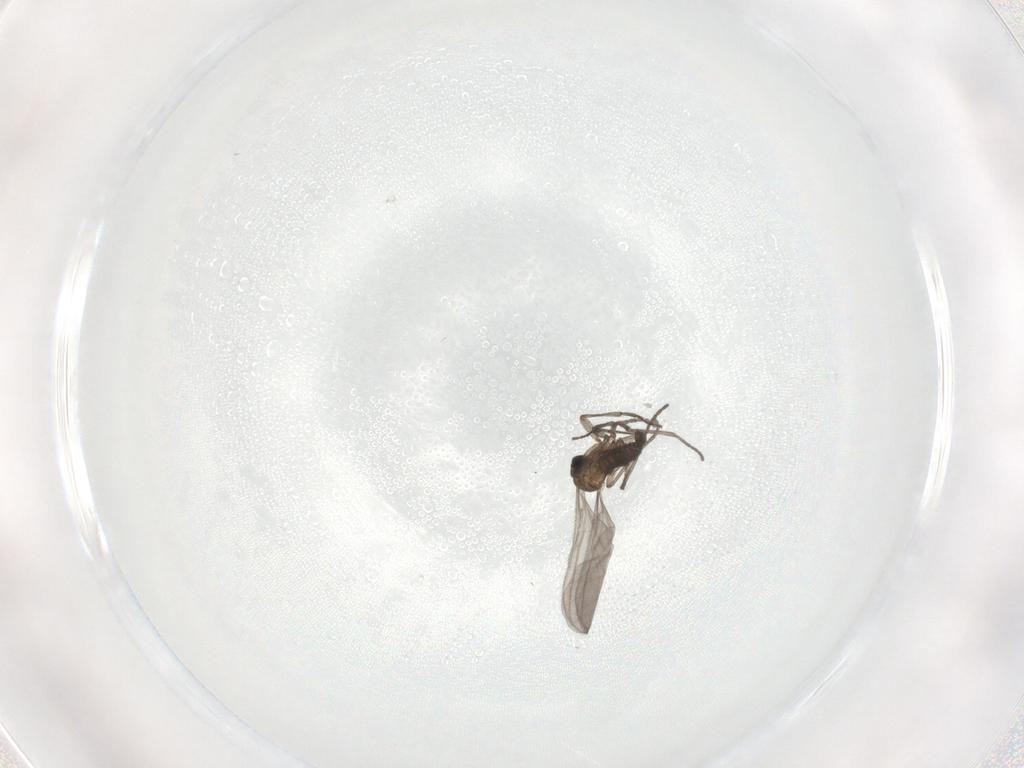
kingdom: Animalia
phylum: Arthropoda
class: Insecta
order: Diptera
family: Sciaridae
